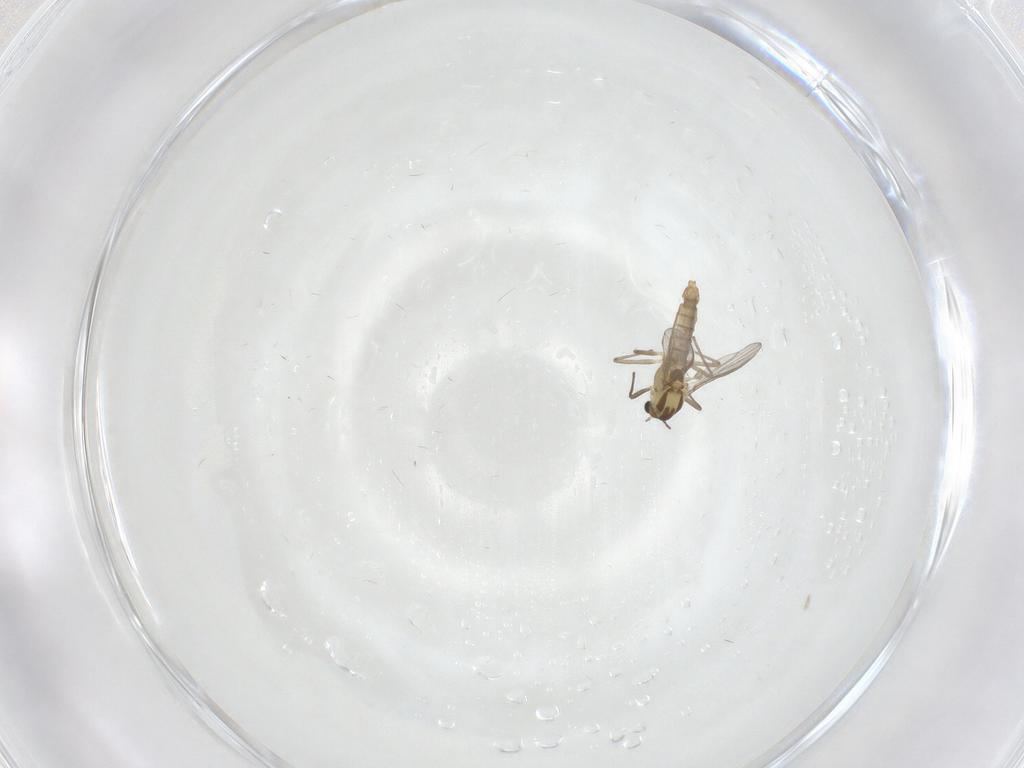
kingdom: Animalia
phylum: Arthropoda
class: Insecta
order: Diptera
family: Chironomidae
